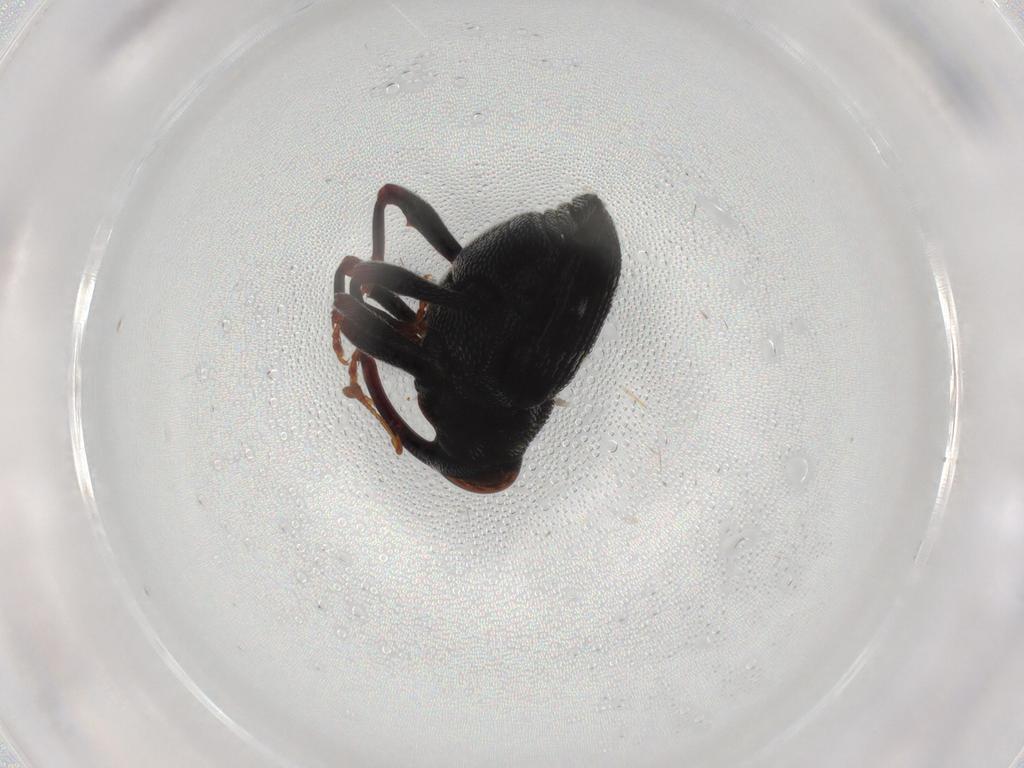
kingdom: Animalia
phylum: Arthropoda
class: Insecta
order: Coleoptera
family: Curculionidae
